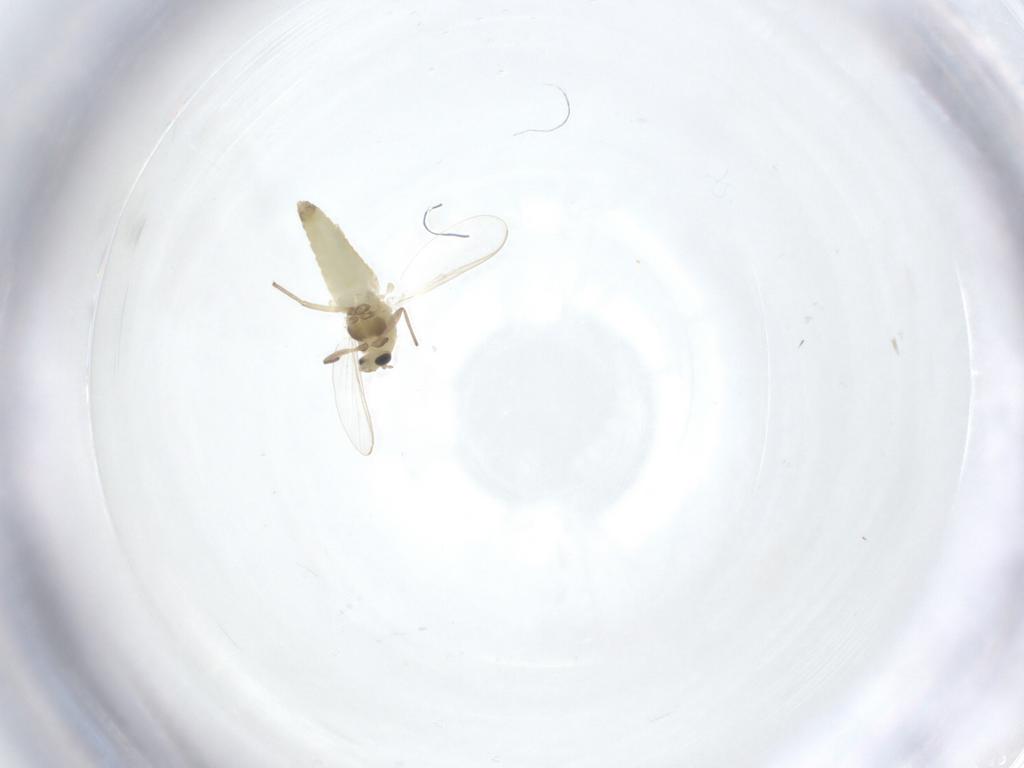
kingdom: Animalia
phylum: Arthropoda
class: Insecta
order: Diptera
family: Chironomidae
